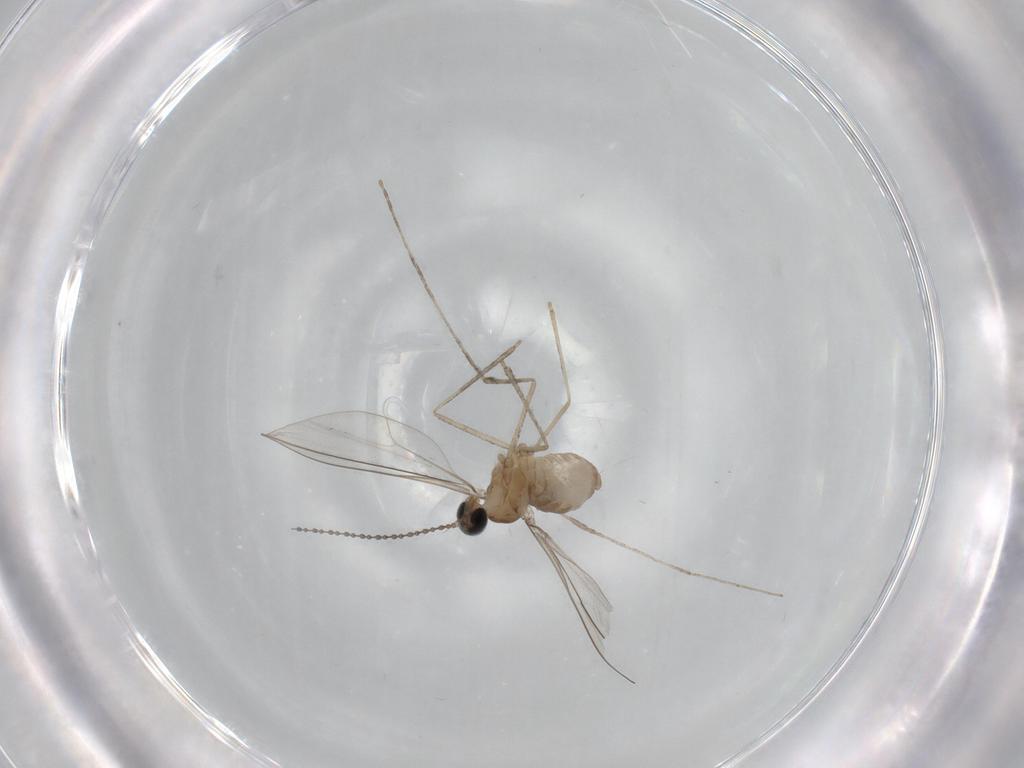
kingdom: Animalia
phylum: Arthropoda
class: Insecta
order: Diptera
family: Cecidomyiidae
